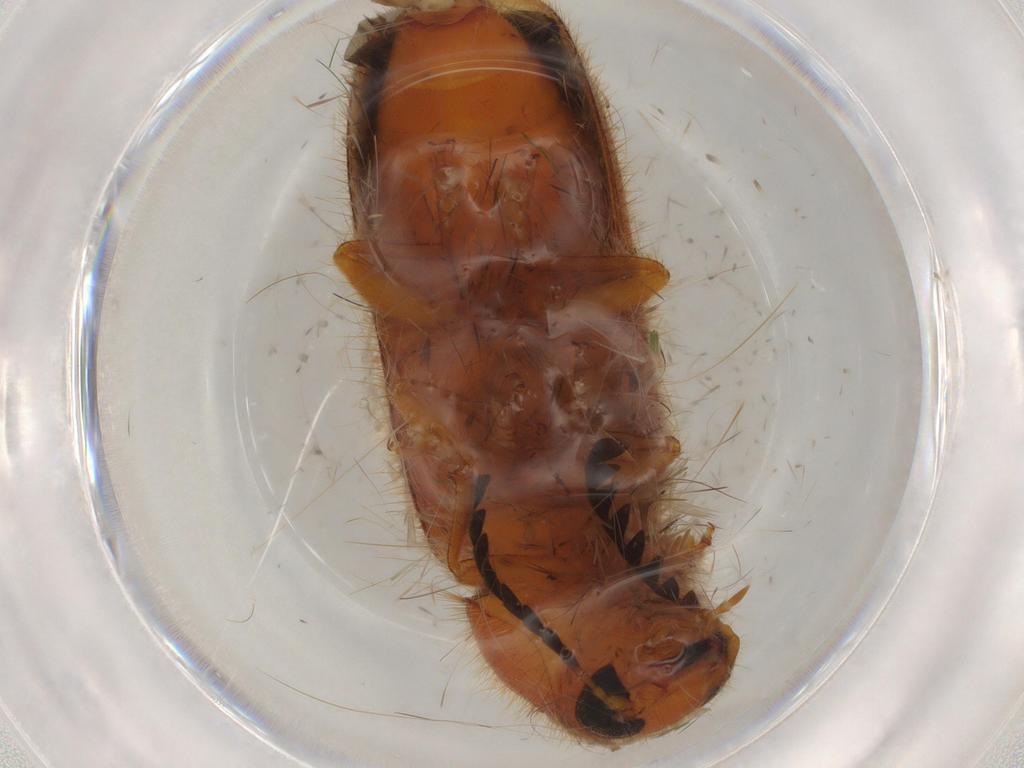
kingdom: Animalia
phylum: Arthropoda
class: Insecta
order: Coleoptera
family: Cleridae
